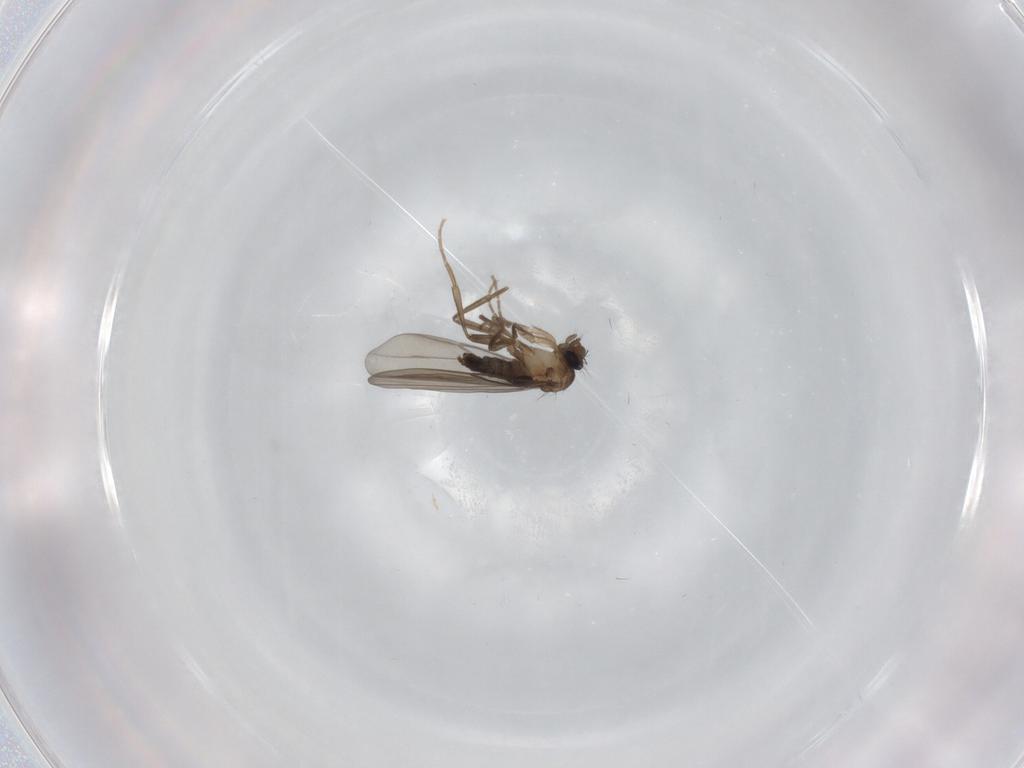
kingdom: Animalia
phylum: Arthropoda
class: Insecta
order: Diptera
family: Phoridae
